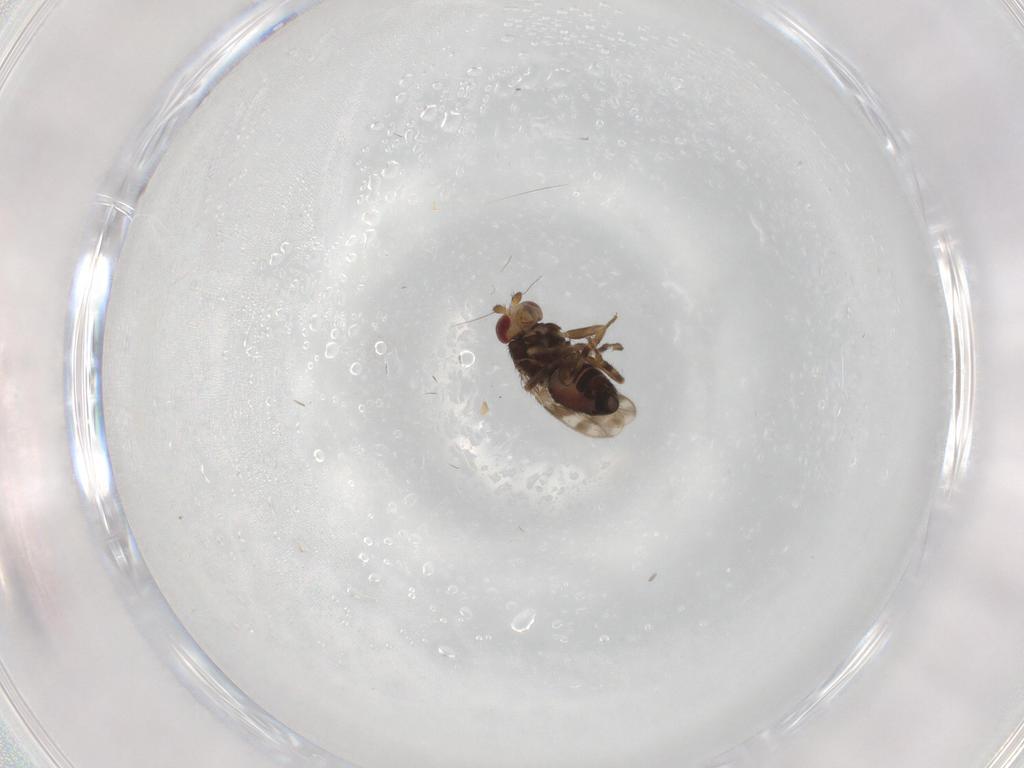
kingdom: Animalia
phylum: Arthropoda
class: Insecta
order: Diptera
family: Sphaeroceridae
